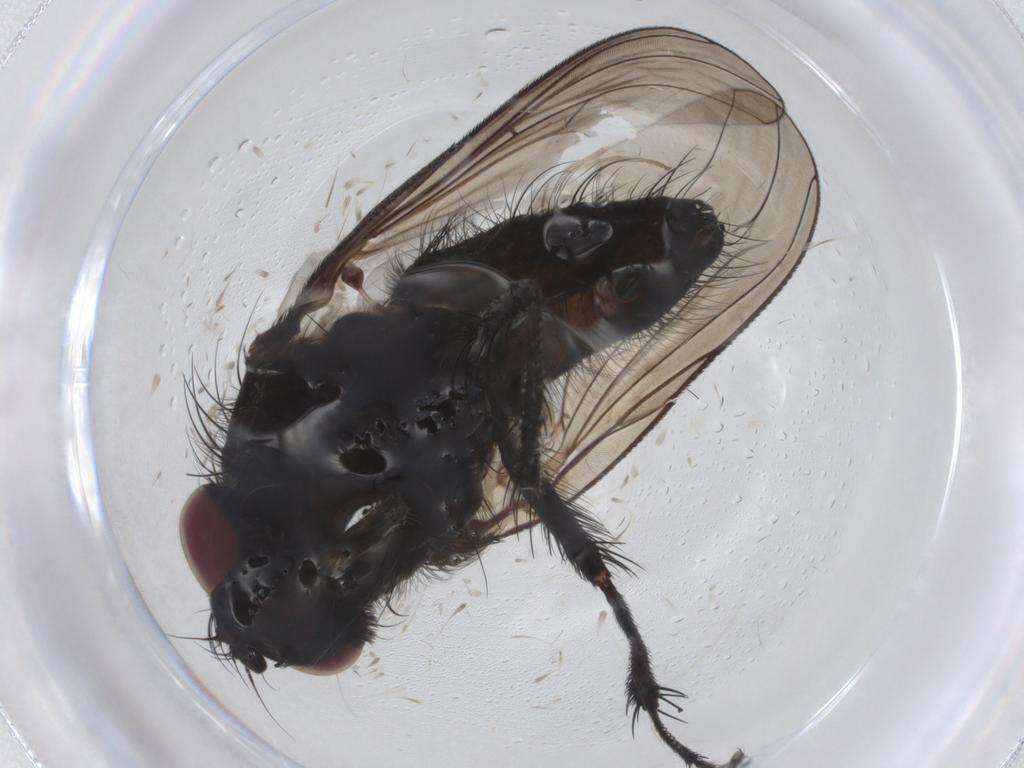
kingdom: Animalia
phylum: Arthropoda
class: Insecta
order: Diptera
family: Fannia
